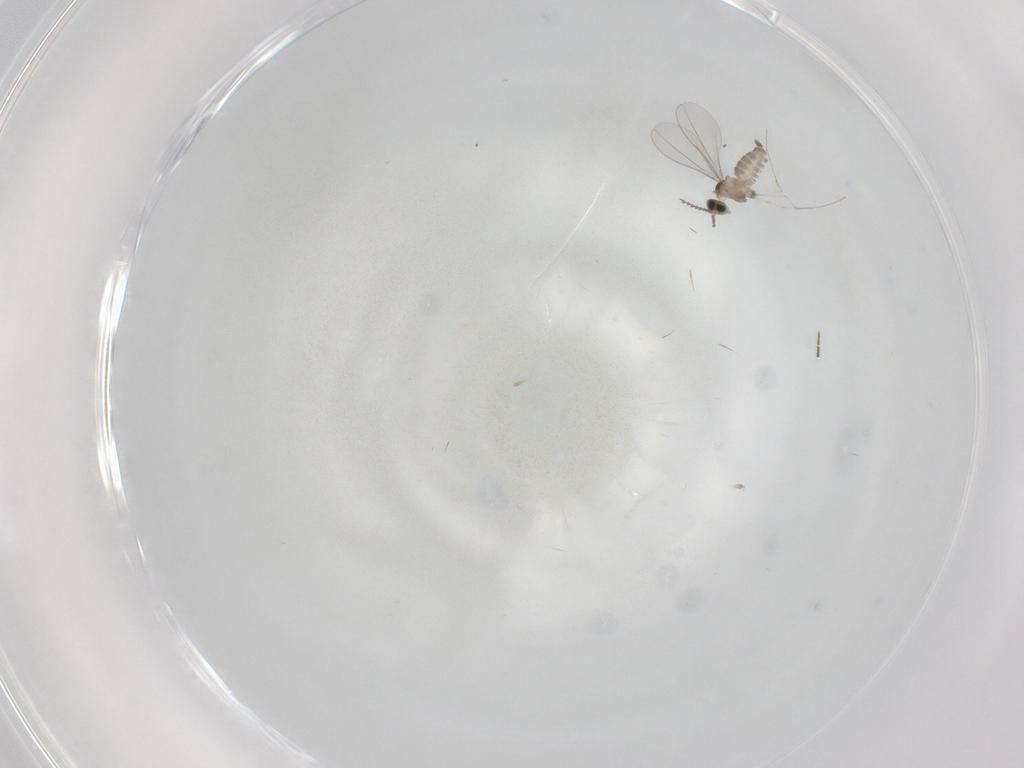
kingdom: Animalia
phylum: Arthropoda
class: Insecta
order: Diptera
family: Cecidomyiidae
